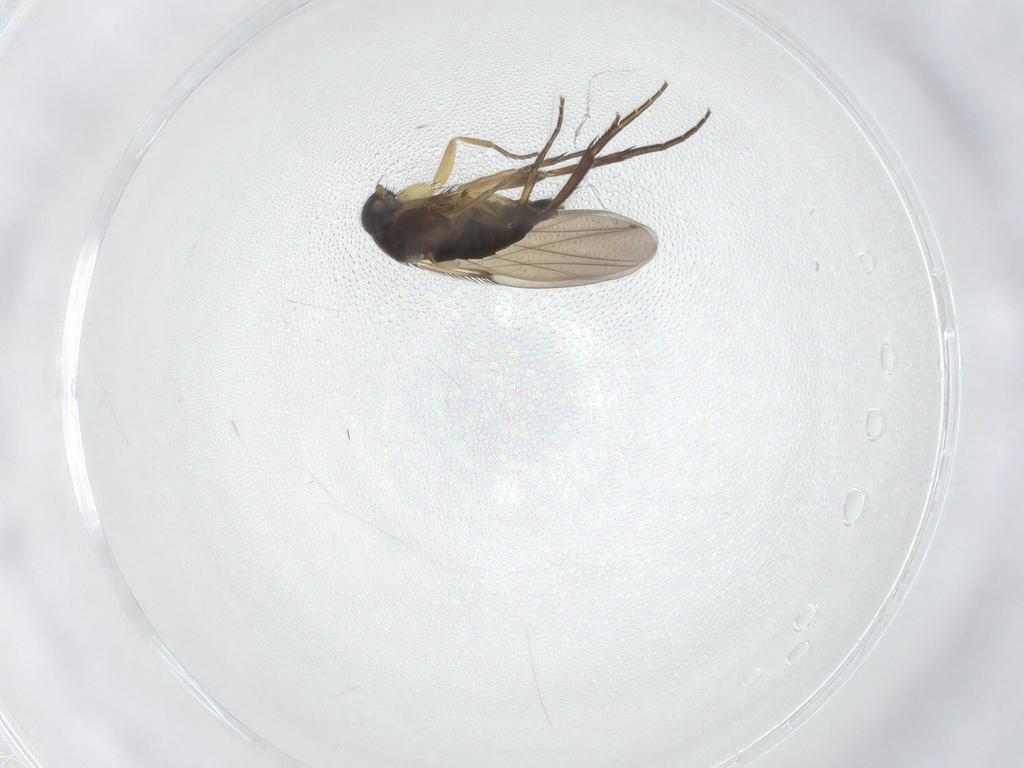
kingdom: Animalia
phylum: Arthropoda
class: Insecta
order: Diptera
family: Phoridae
